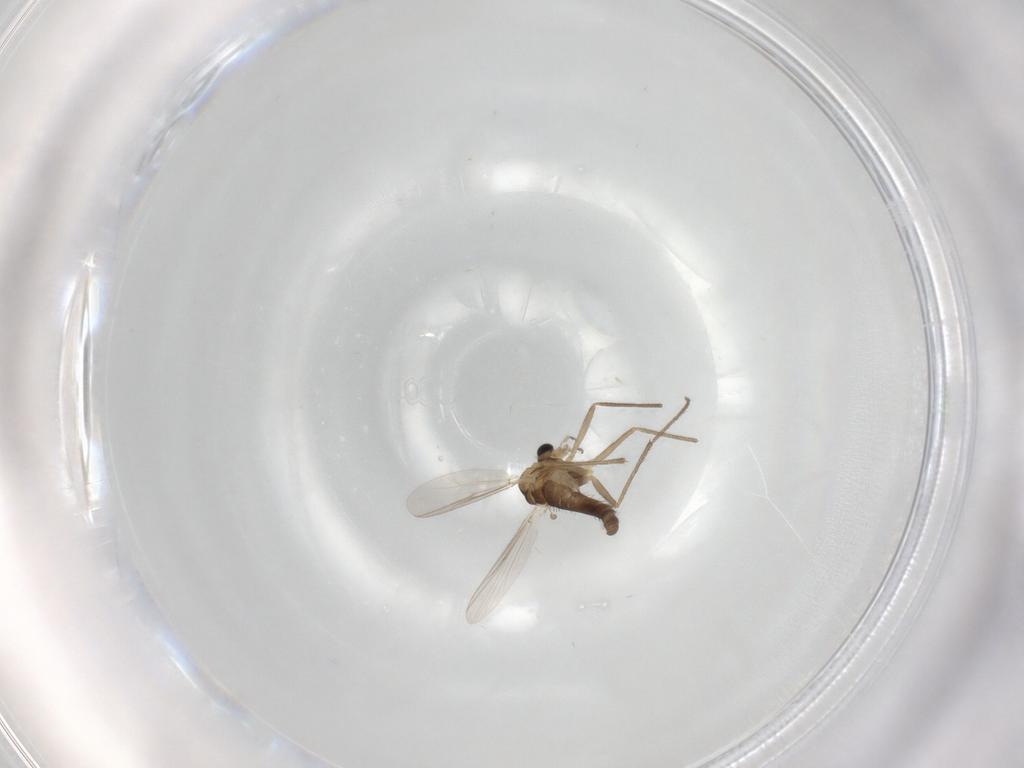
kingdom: Animalia
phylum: Arthropoda
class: Insecta
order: Diptera
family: Chironomidae
